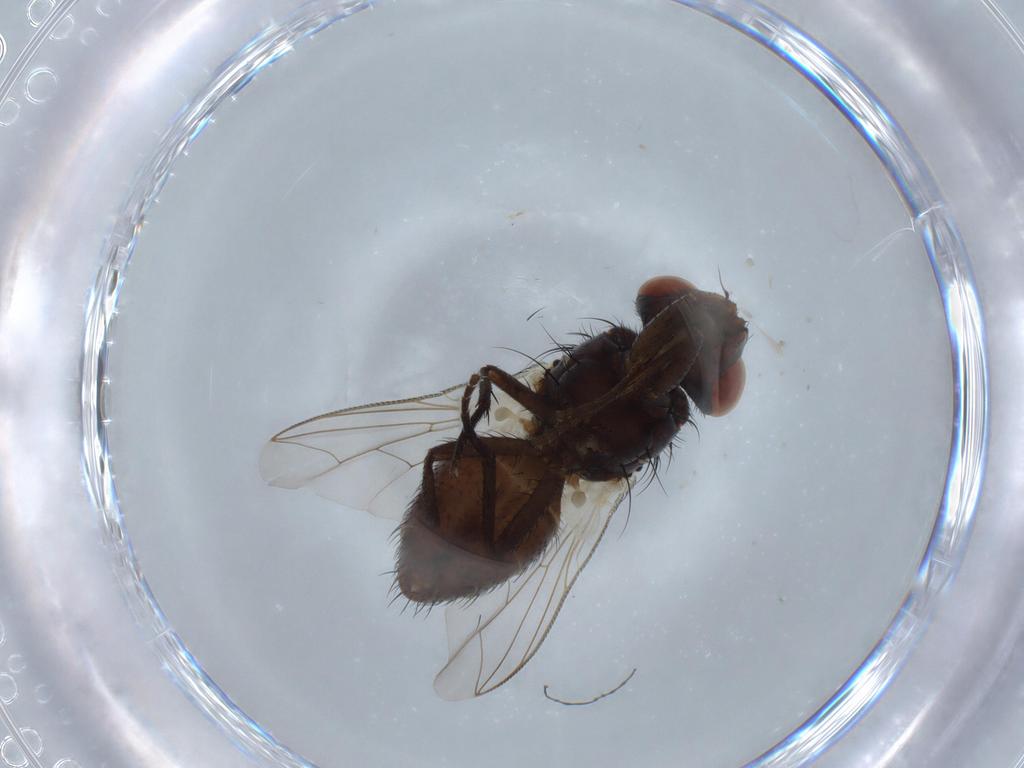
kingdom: Animalia
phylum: Arthropoda
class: Insecta
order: Diptera
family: Sarcophagidae
